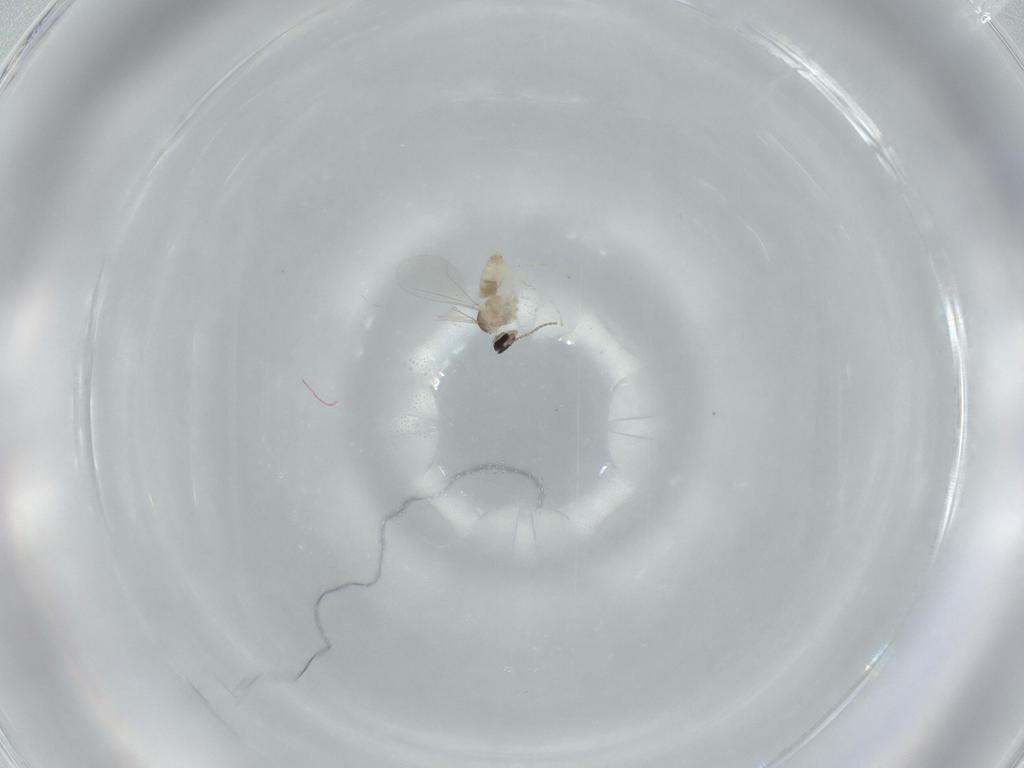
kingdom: Animalia
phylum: Arthropoda
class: Insecta
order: Diptera
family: Cecidomyiidae
